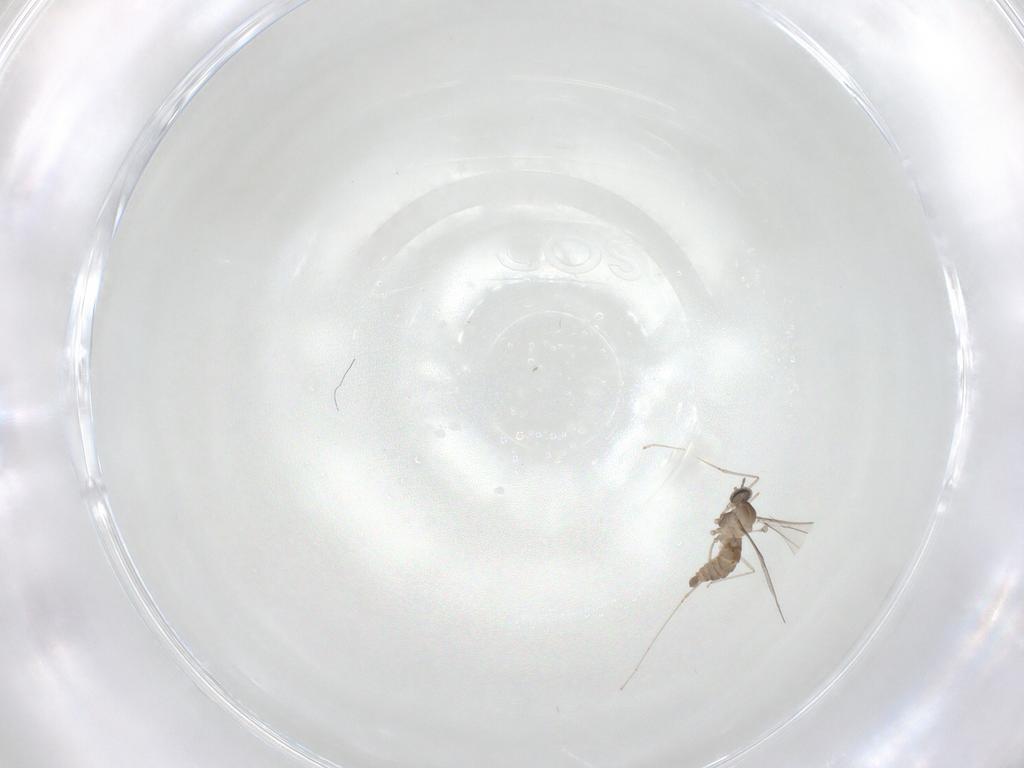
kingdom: Animalia
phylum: Arthropoda
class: Insecta
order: Diptera
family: Cecidomyiidae
